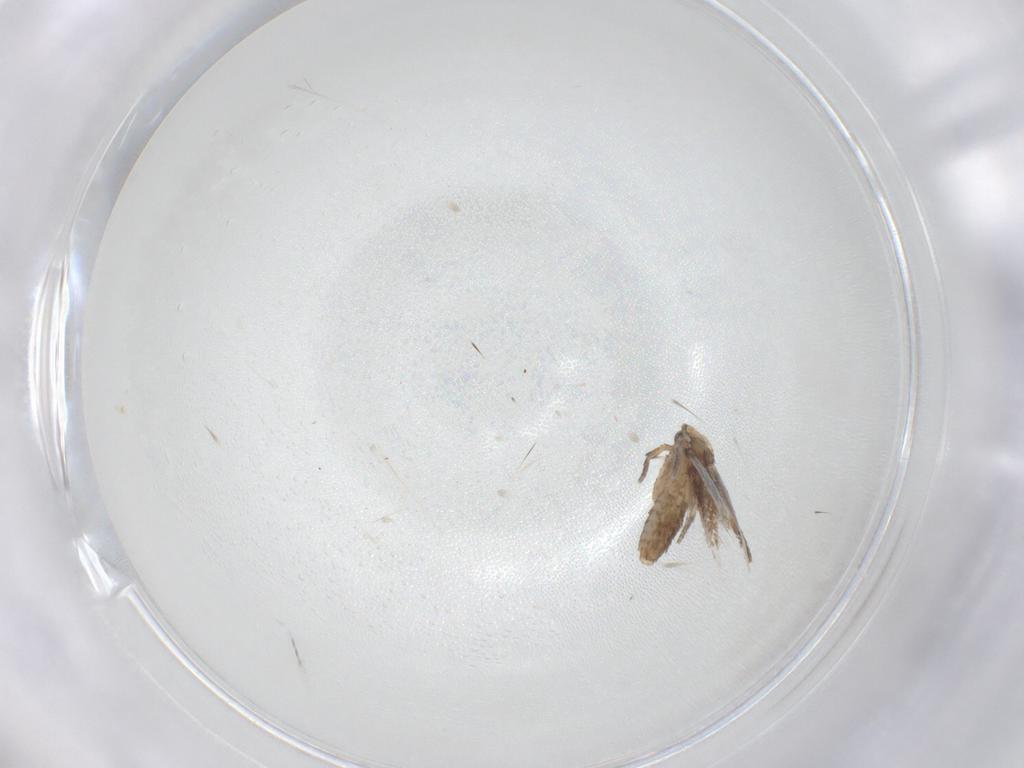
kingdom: Animalia
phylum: Arthropoda
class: Insecta
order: Lepidoptera
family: Nepticulidae
